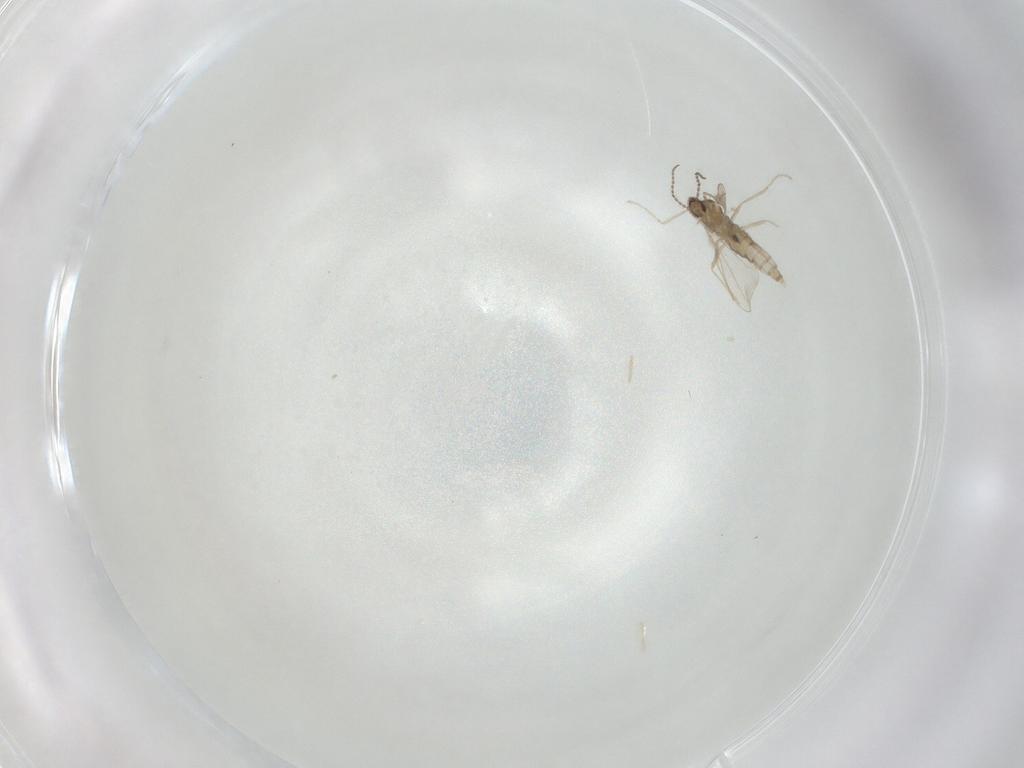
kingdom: Animalia
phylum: Arthropoda
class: Insecta
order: Diptera
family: Cecidomyiidae
